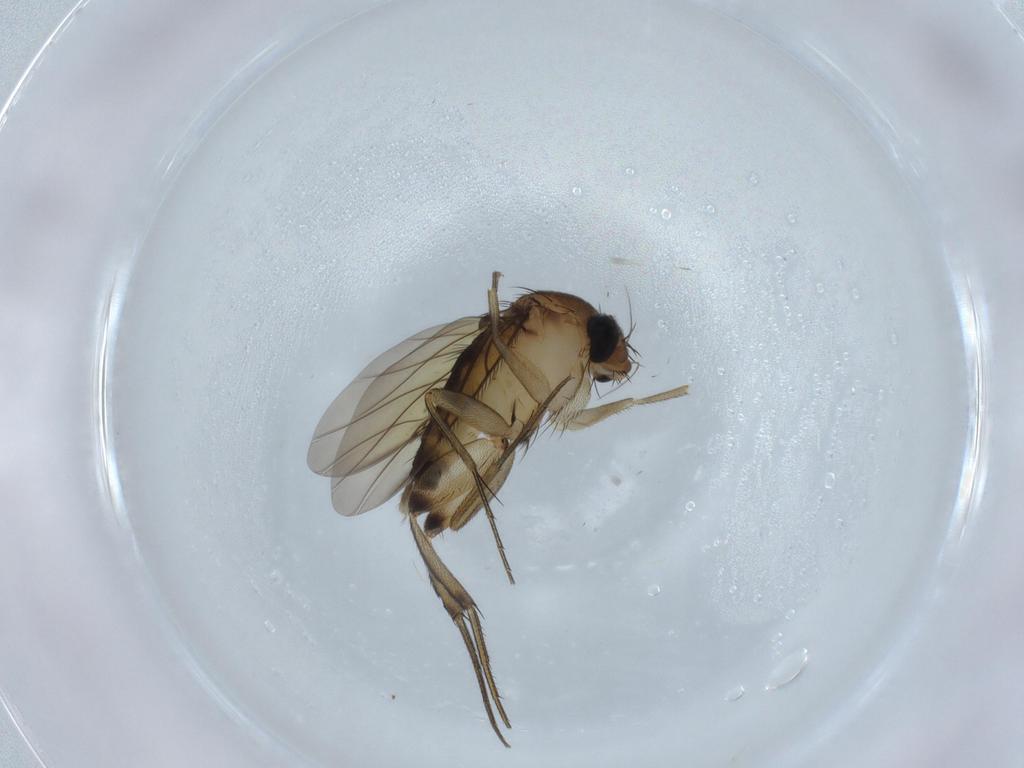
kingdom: Animalia
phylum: Arthropoda
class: Insecta
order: Diptera
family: Phoridae
